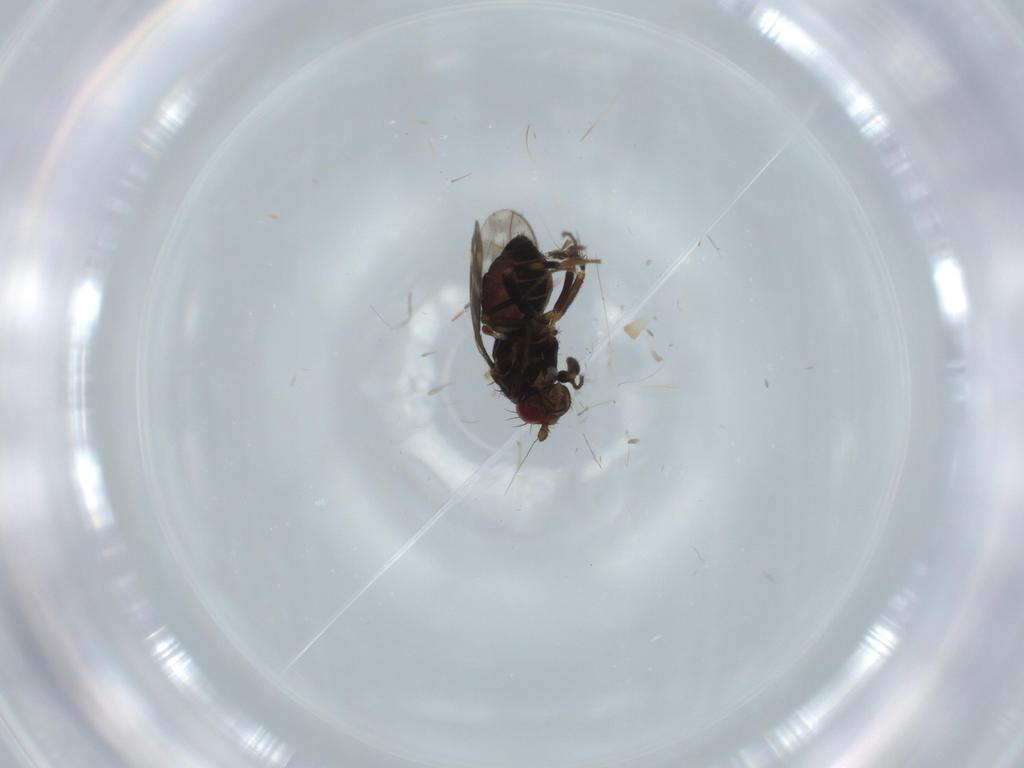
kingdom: Animalia
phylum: Arthropoda
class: Insecta
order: Diptera
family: Sphaeroceridae
